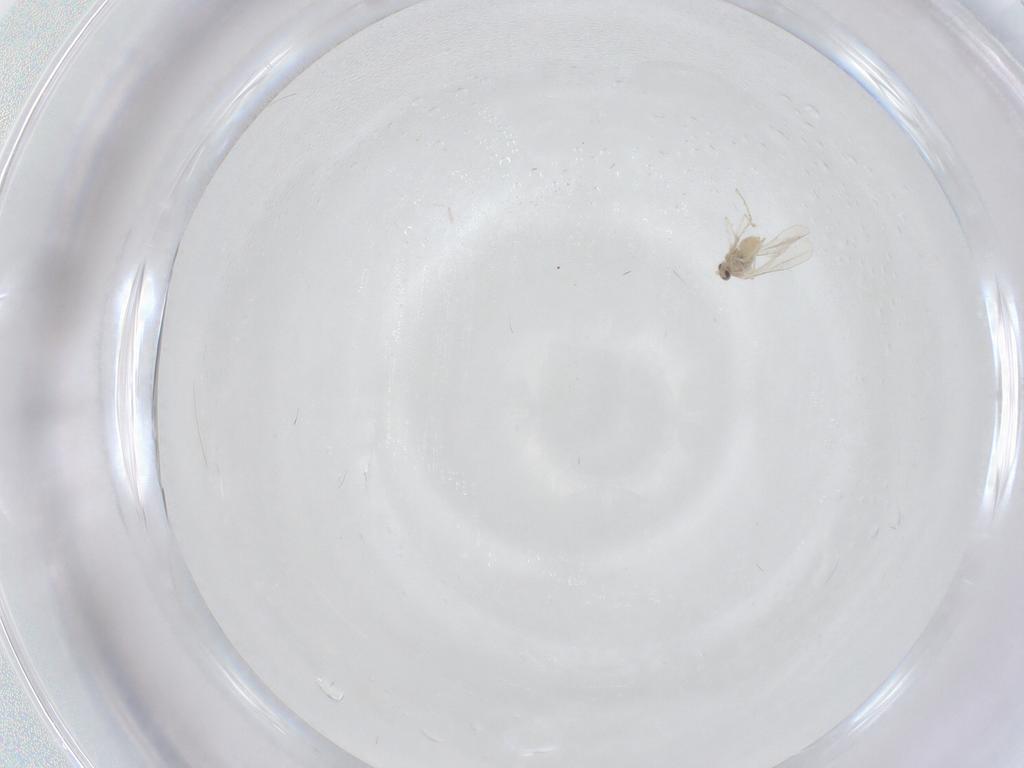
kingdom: Animalia
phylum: Arthropoda
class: Insecta
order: Diptera
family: Cecidomyiidae
